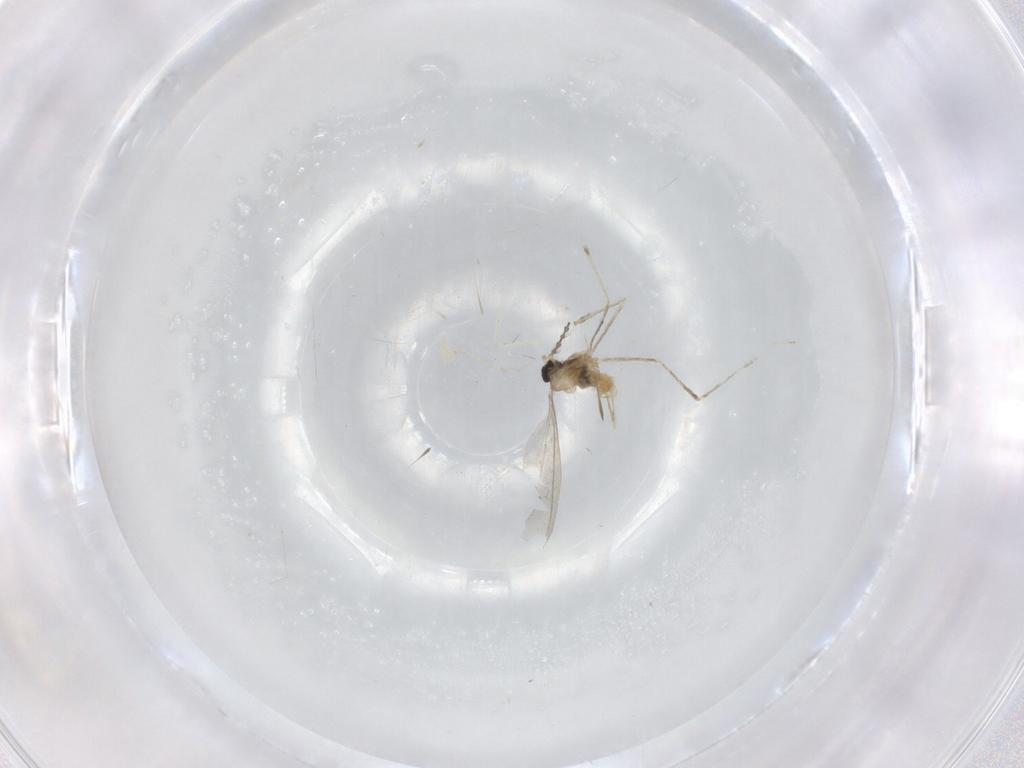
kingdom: Animalia
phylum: Arthropoda
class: Insecta
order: Diptera
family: Cecidomyiidae
